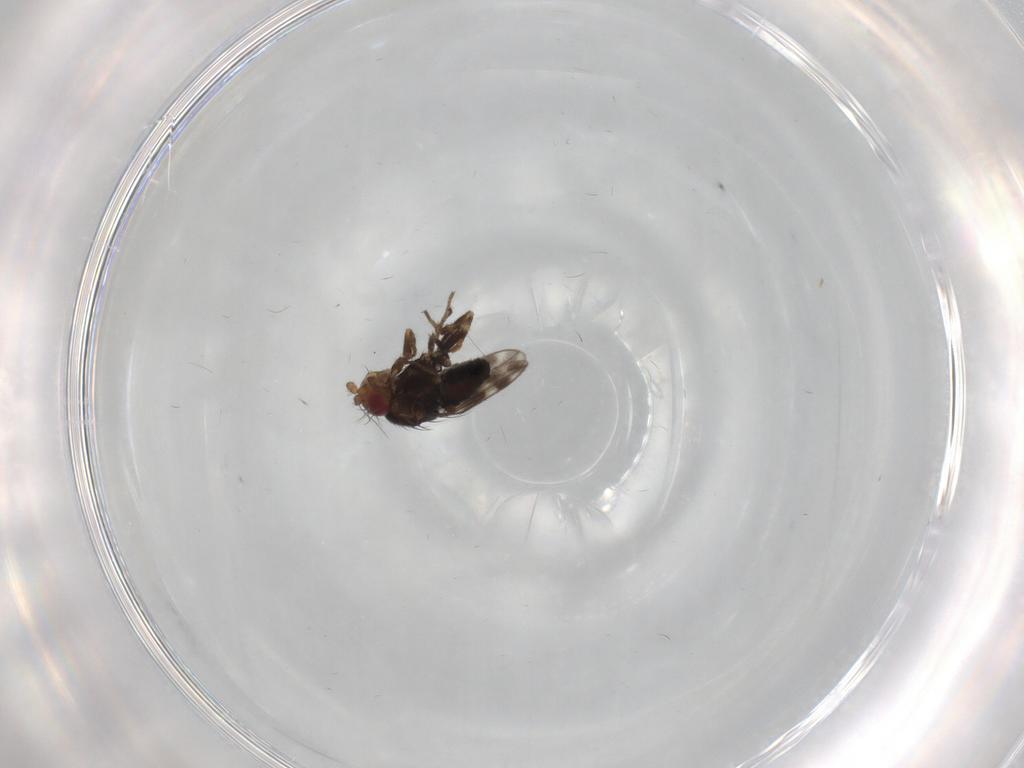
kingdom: Animalia
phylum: Arthropoda
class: Insecta
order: Diptera
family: Sphaeroceridae
